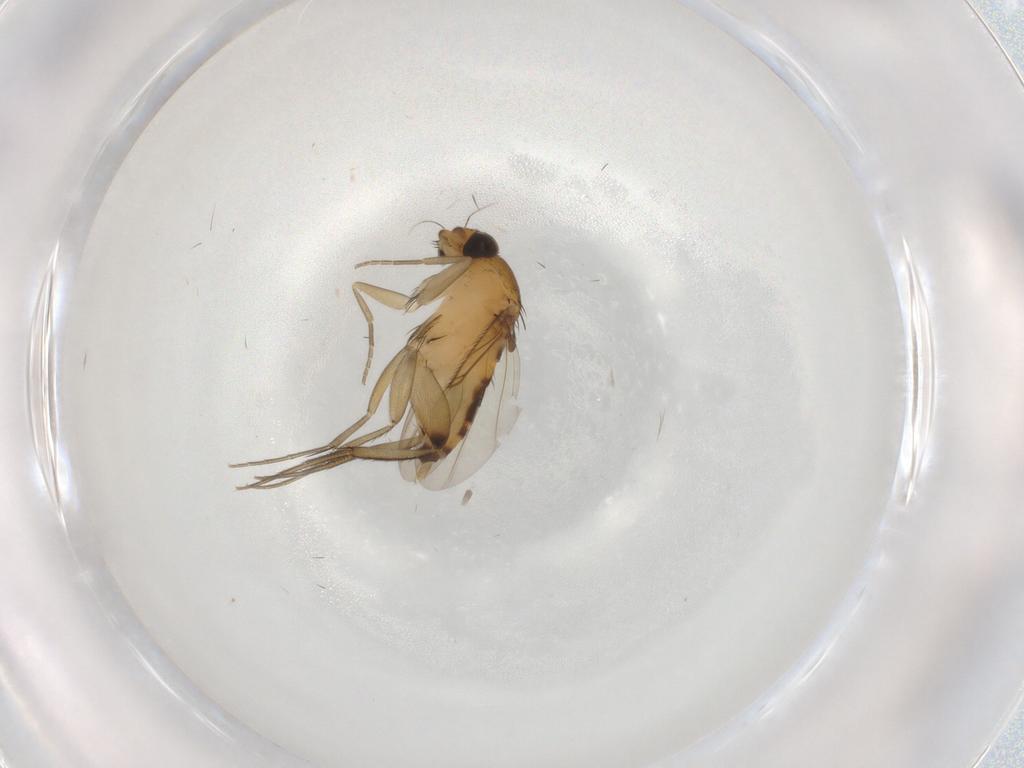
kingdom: Animalia
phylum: Arthropoda
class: Insecta
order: Diptera
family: Phoridae
